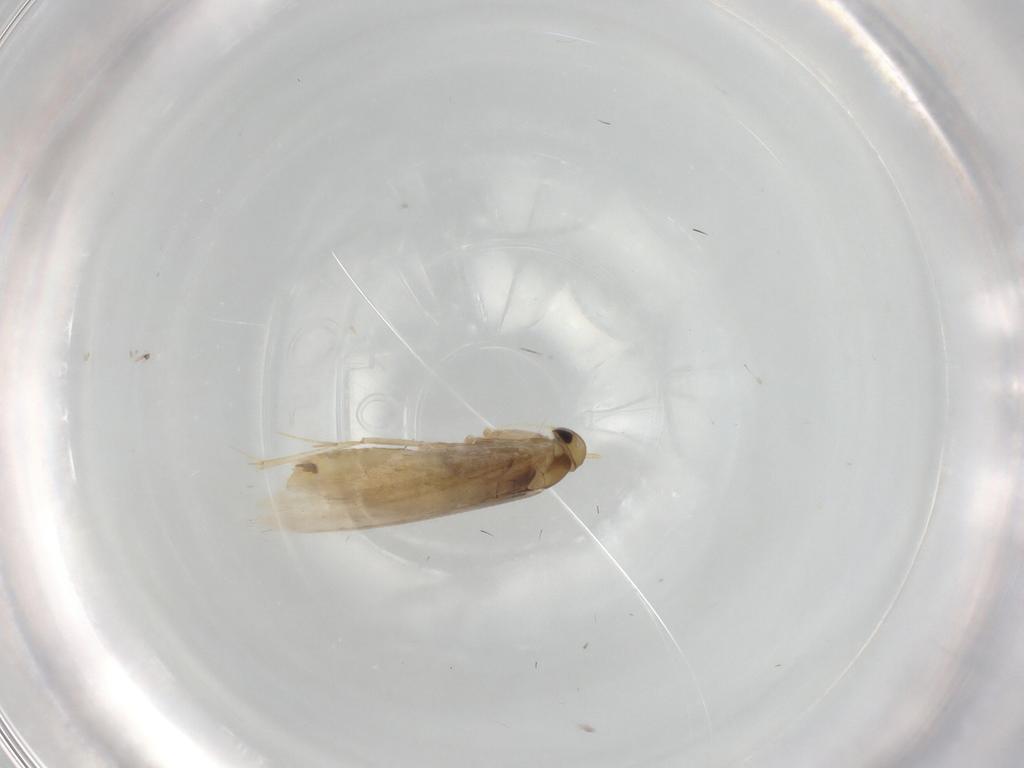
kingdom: Animalia
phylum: Arthropoda
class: Insecta
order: Lepidoptera
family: Gracillariidae
